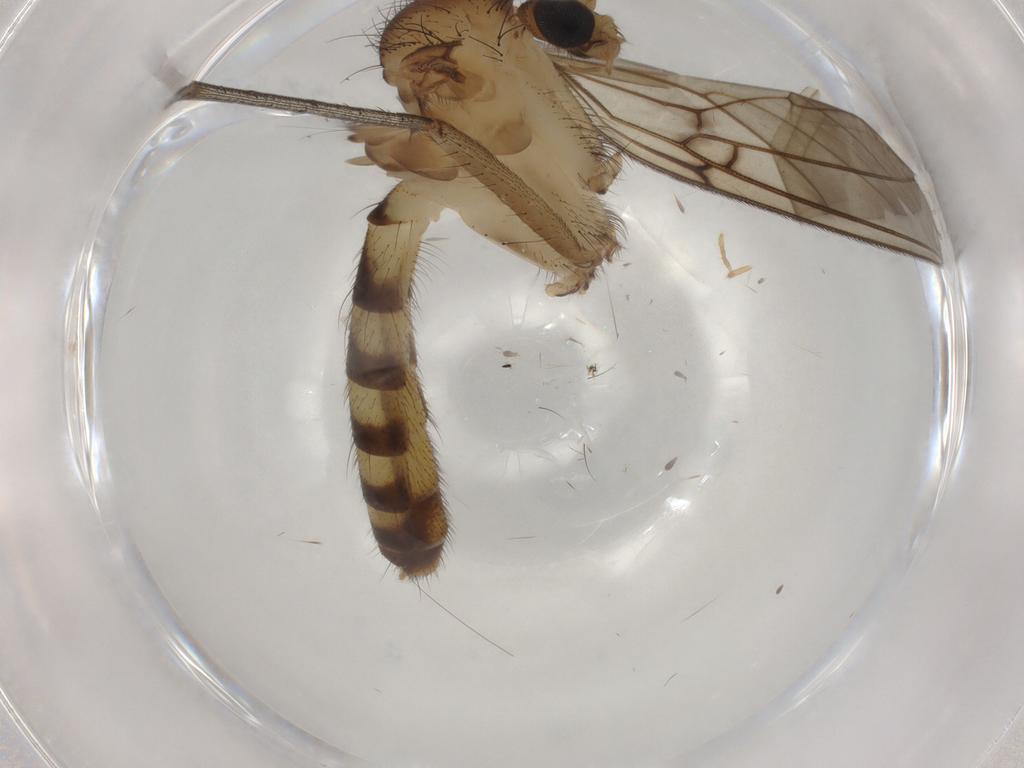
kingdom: Animalia
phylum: Arthropoda
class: Insecta
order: Diptera
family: Mycetophilidae
